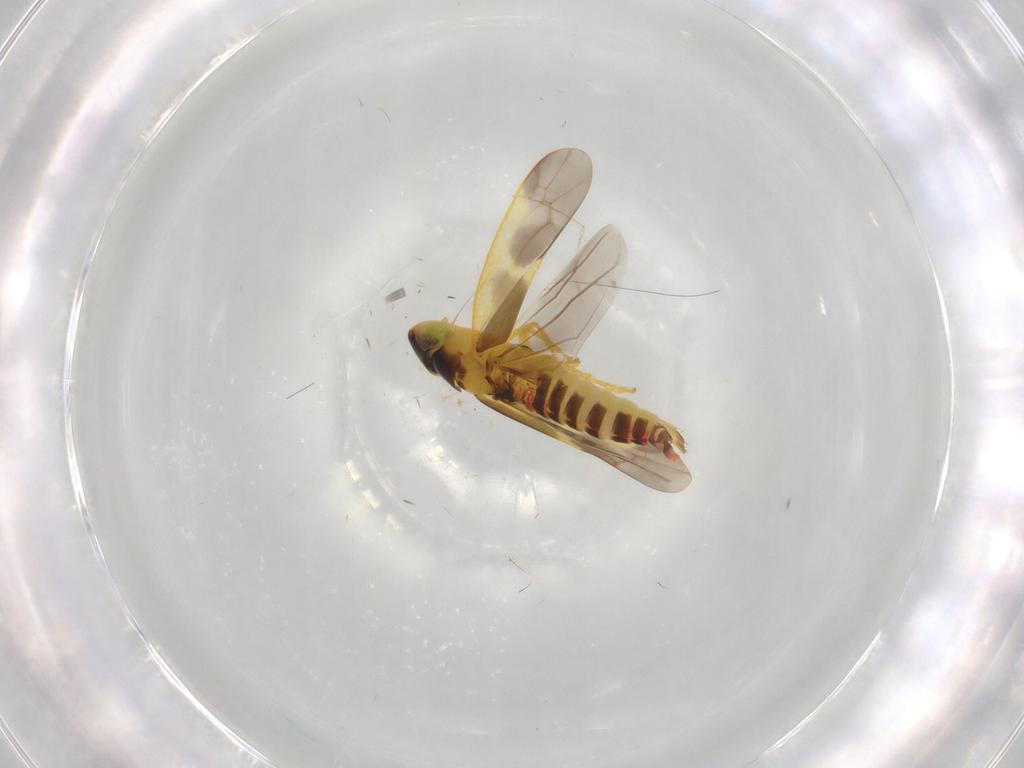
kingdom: Animalia
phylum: Arthropoda
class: Insecta
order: Hemiptera
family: Cicadellidae
